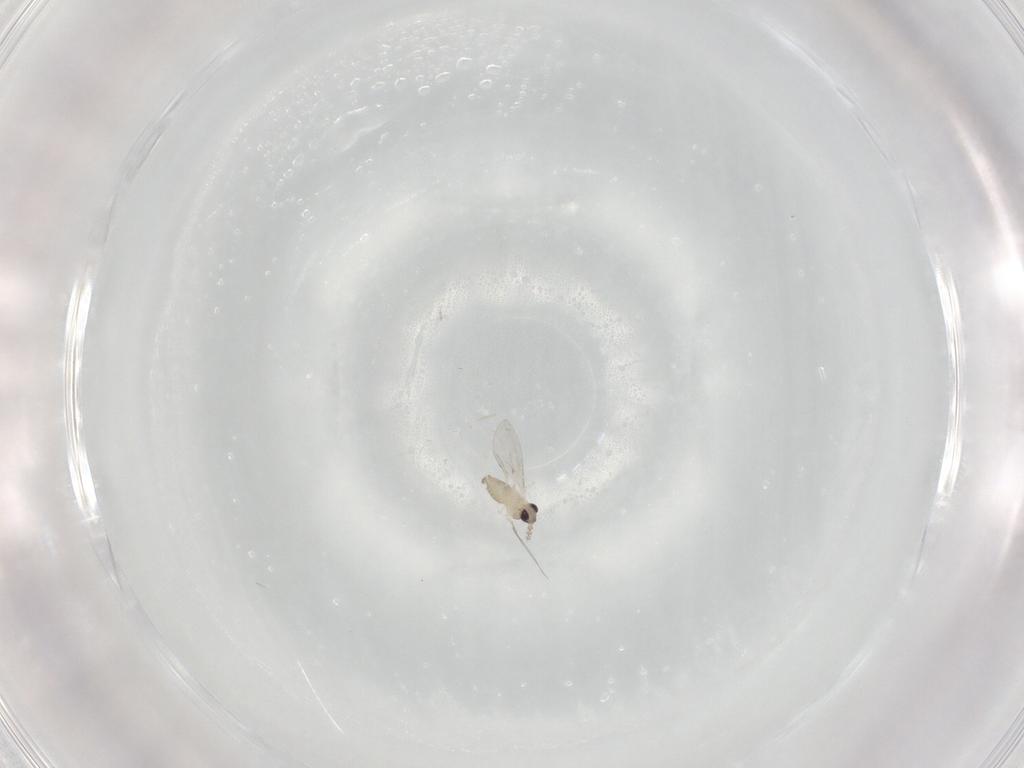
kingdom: Animalia
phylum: Arthropoda
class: Insecta
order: Diptera
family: Cecidomyiidae
